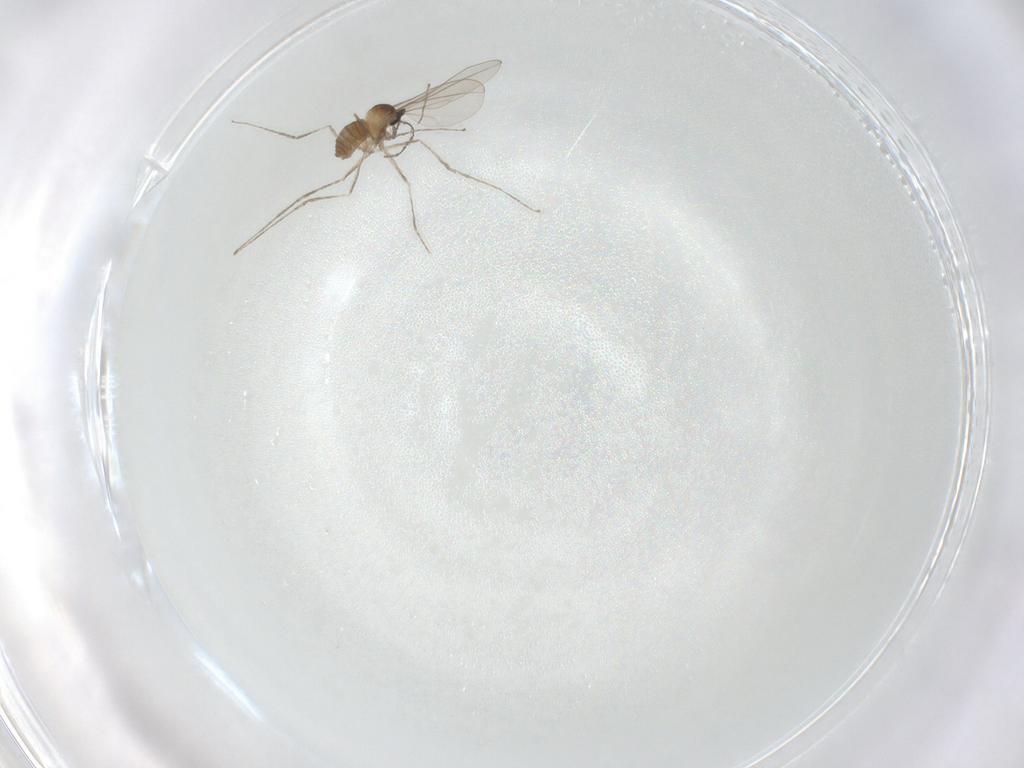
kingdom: Animalia
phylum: Arthropoda
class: Insecta
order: Diptera
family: Cecidomyiidae
